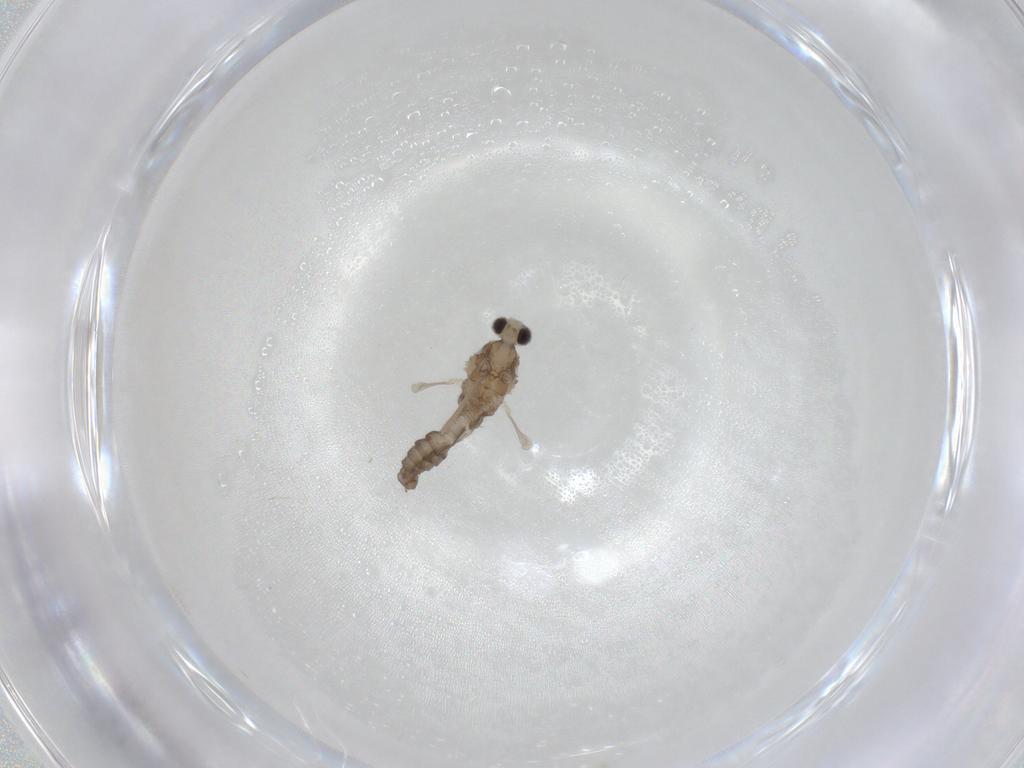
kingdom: Animalia
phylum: Arthropoda
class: Insecta
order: Diptera
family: Cecidomyiidae
